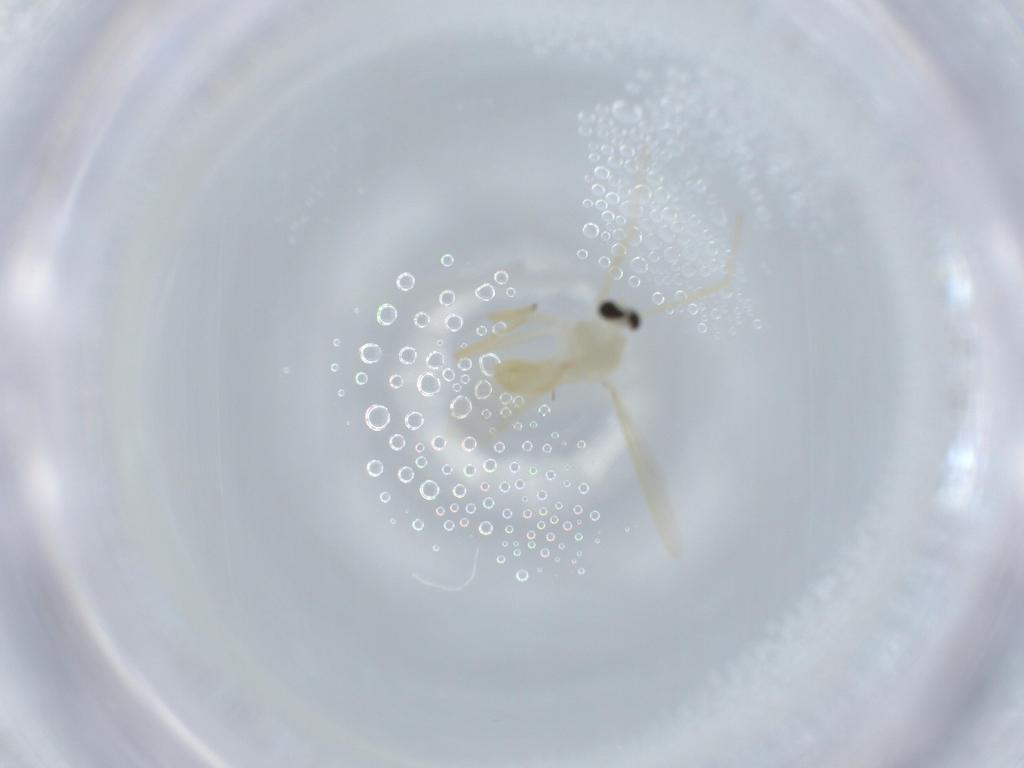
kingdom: Animalia
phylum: Arthropoda
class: Insecta
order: Diptera
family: Chironomidae
